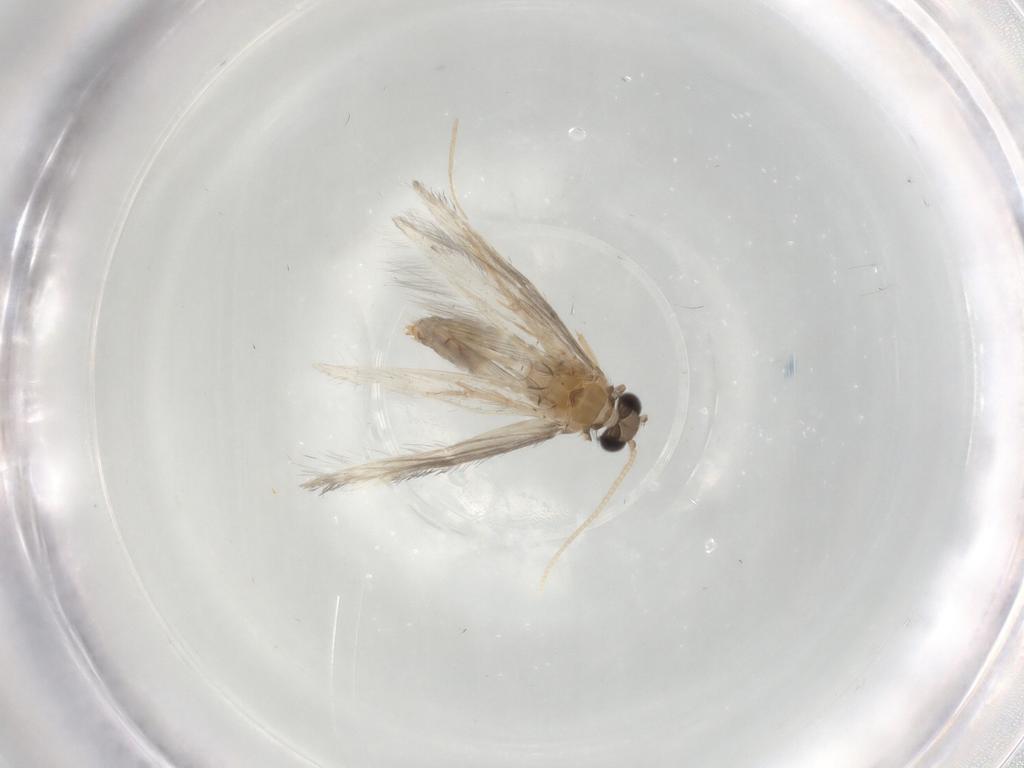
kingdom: Animalia
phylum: Arthropoda
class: Insecta
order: Trichoptera
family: Hydroptilidae
